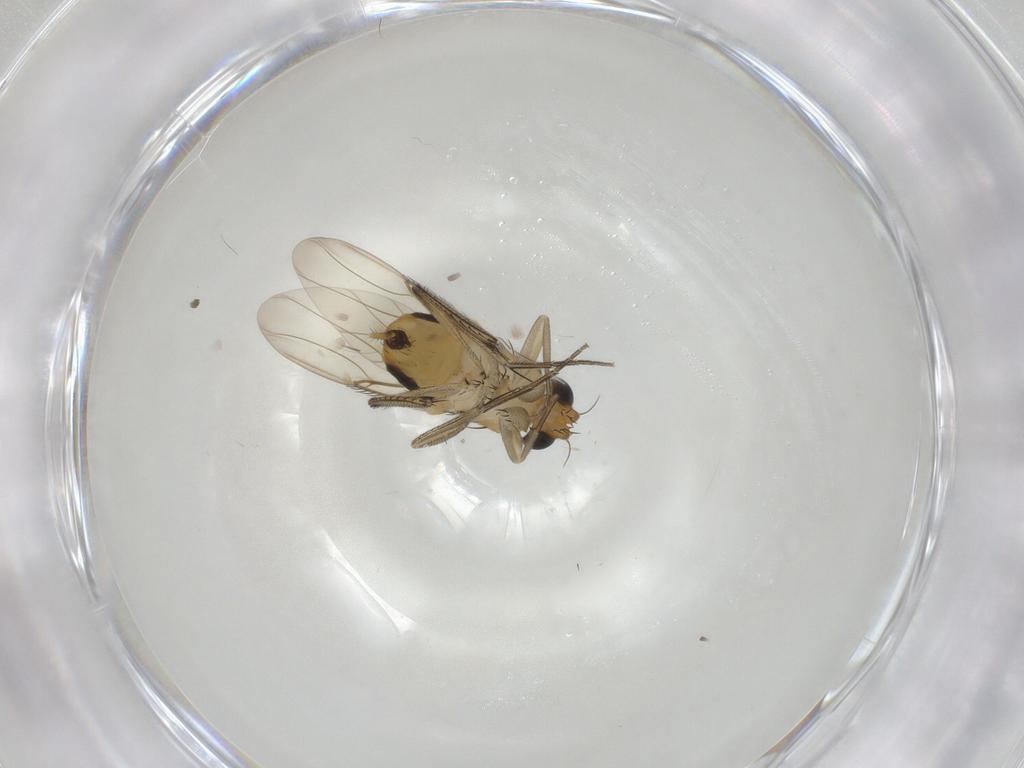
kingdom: Animalia
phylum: Arthropoda
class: Insecta
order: Diptera
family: Phoridae
